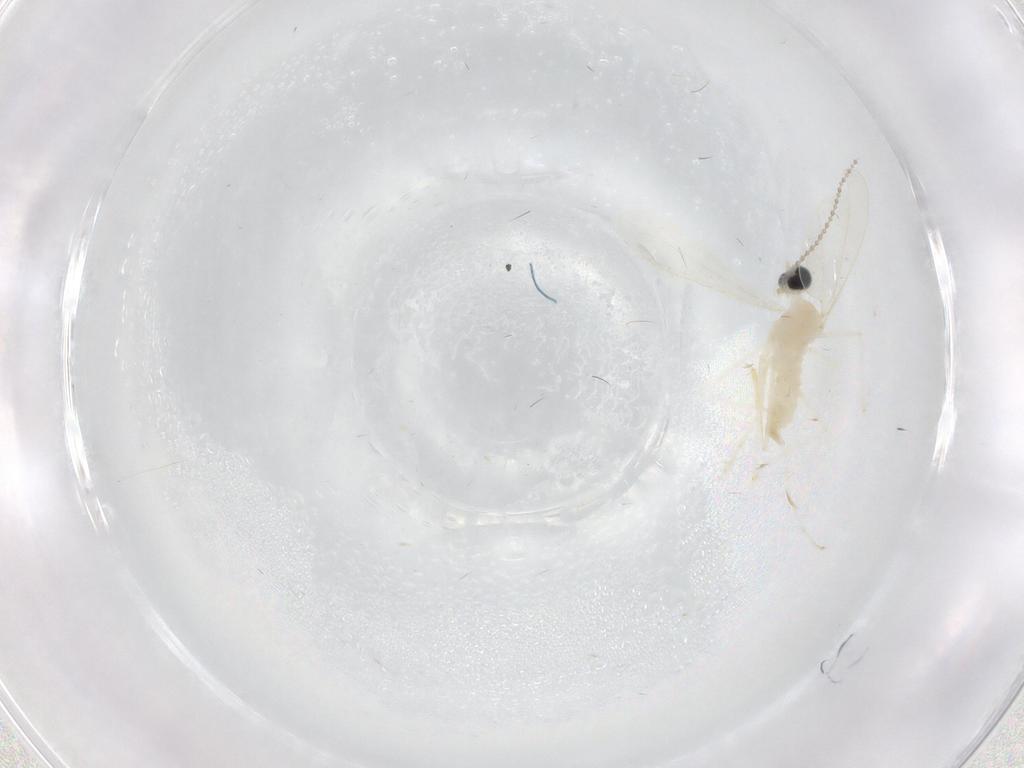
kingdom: Animalia
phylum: Arthropoda
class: Insecta
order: Diptera
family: Cecidomyiidae
